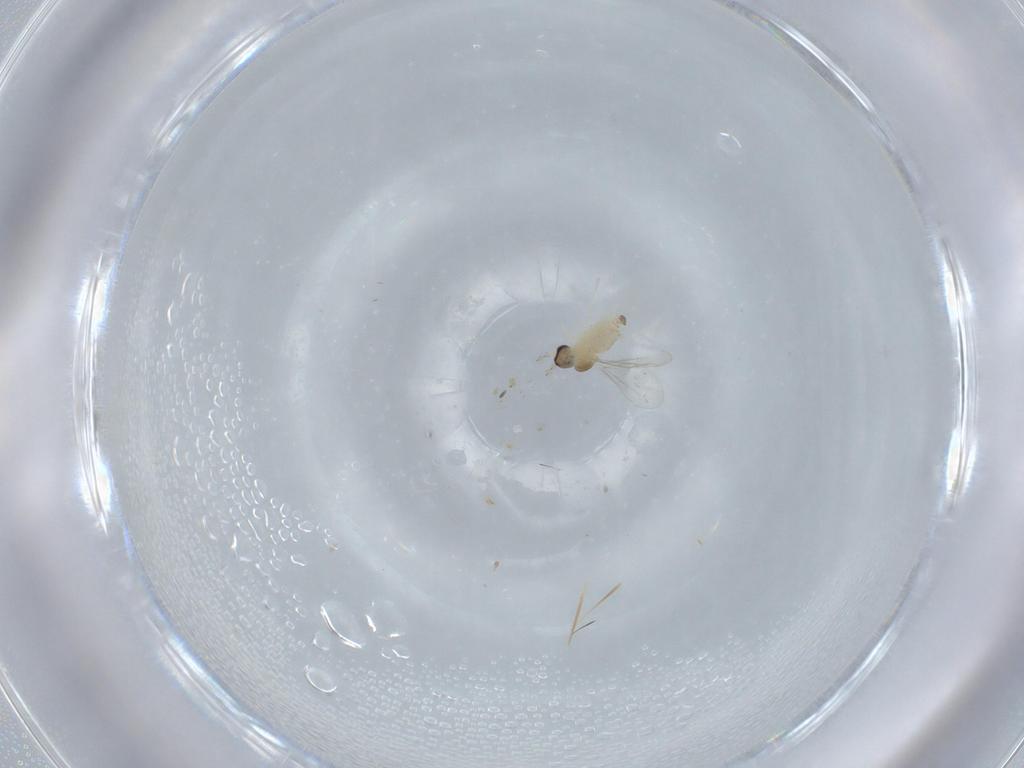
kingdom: Animalia
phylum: Arthropoda
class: Insecta
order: Diptera
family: Cecidomyiidae
